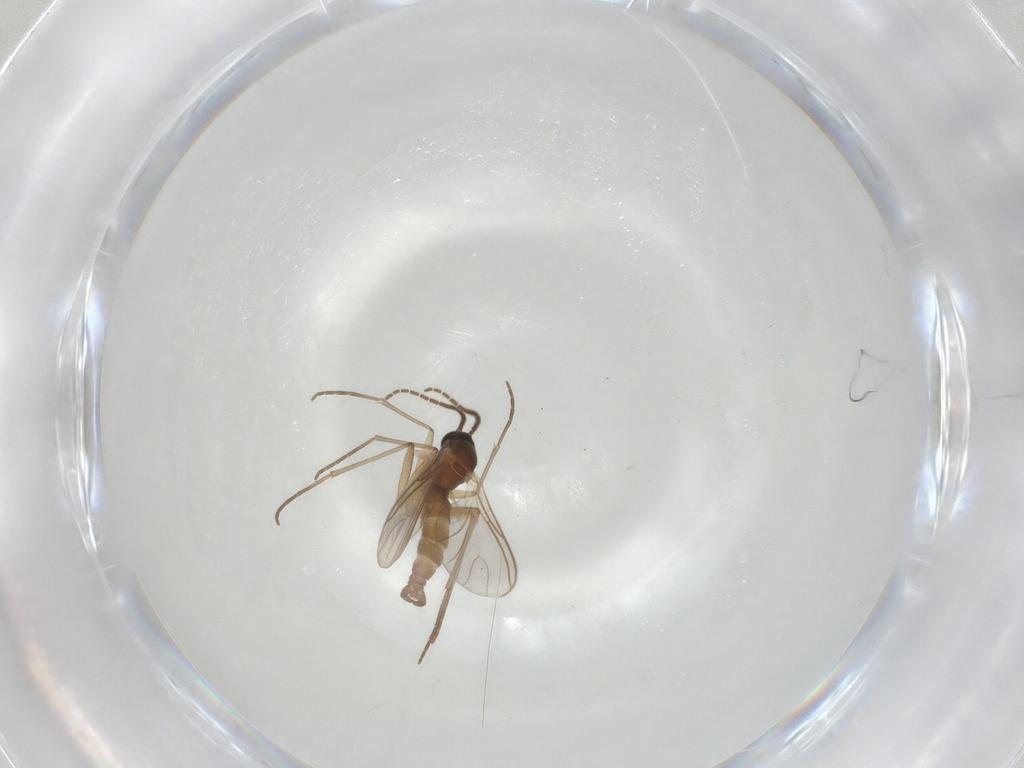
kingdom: Animalia
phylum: Arthropoda
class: Insecta
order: Diptera
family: Sciaridae
